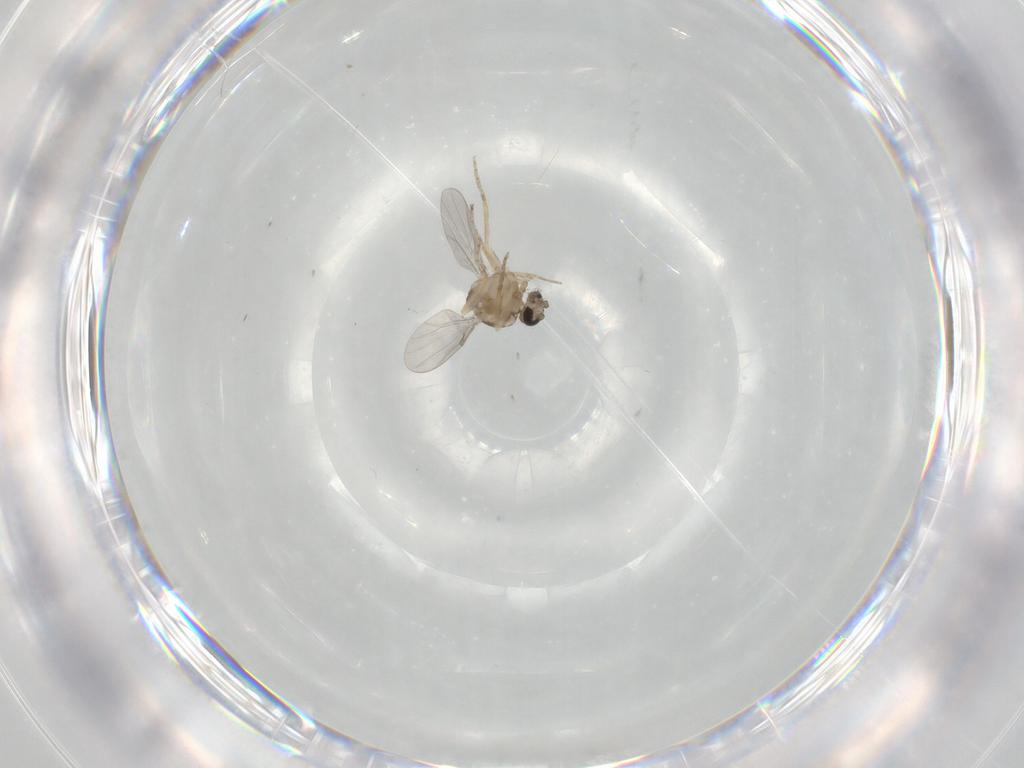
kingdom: Animalia
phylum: Arthropoda
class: Insecta
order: Diptera
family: Ceratopogonidae
